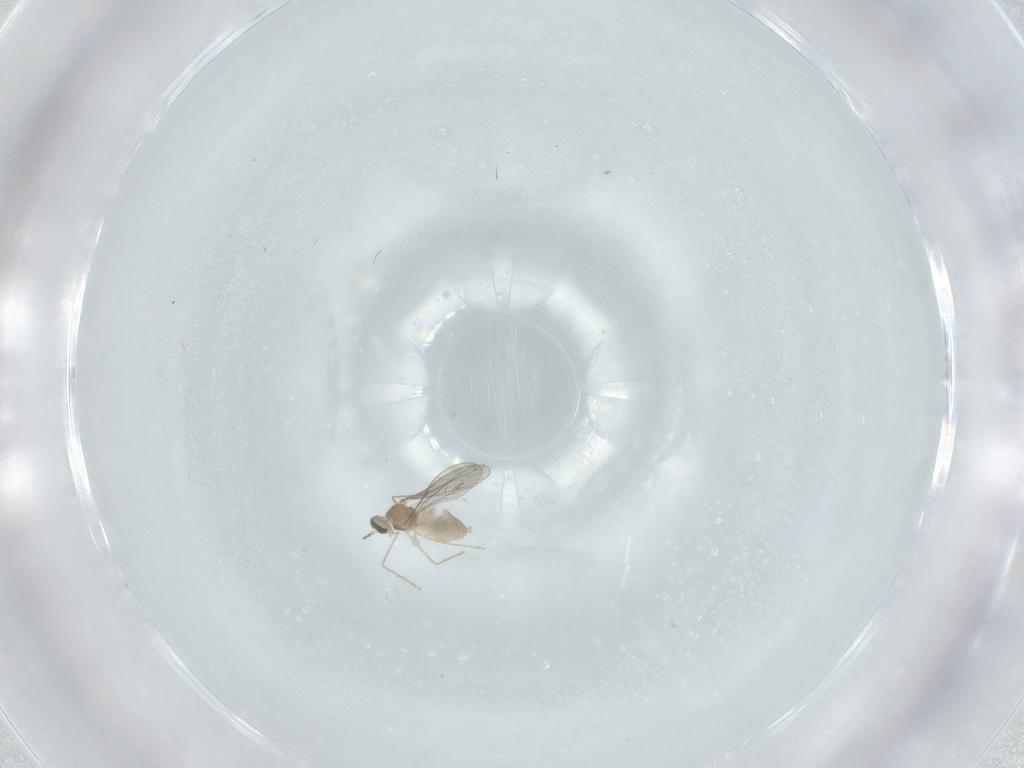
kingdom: Animalia
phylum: Arthropoda
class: Insecta
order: Diptera
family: Cecidomyiidae
